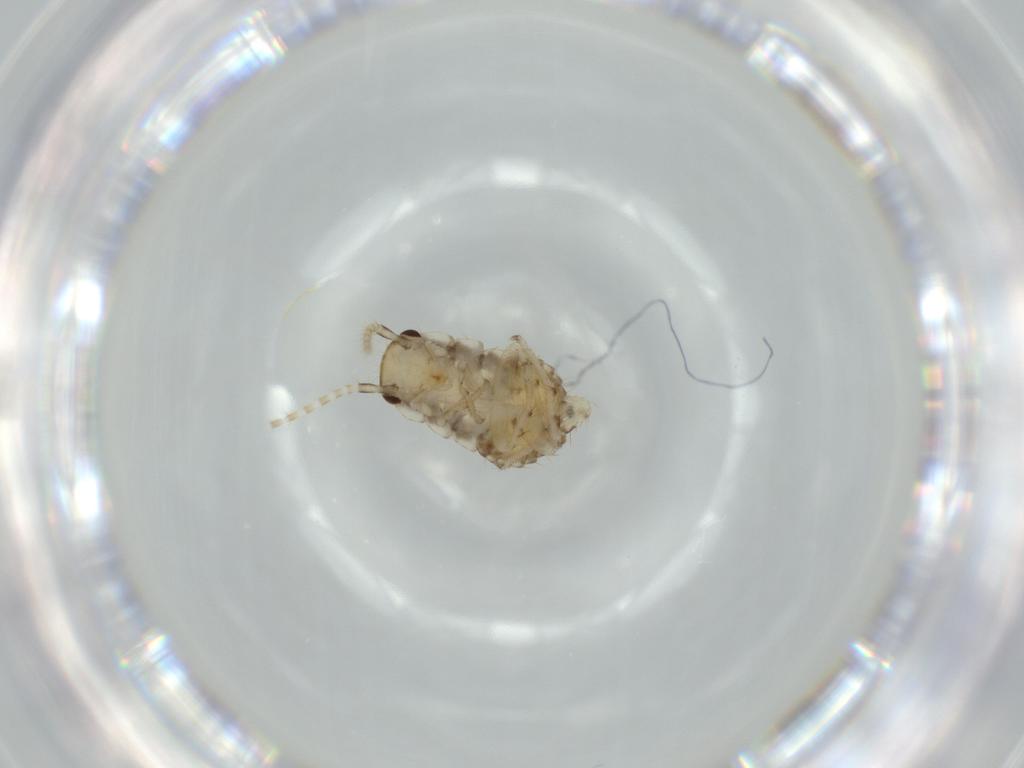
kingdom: Animalia
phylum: Arthropoda
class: Insecta
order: Blattodea
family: Ectobiidae
